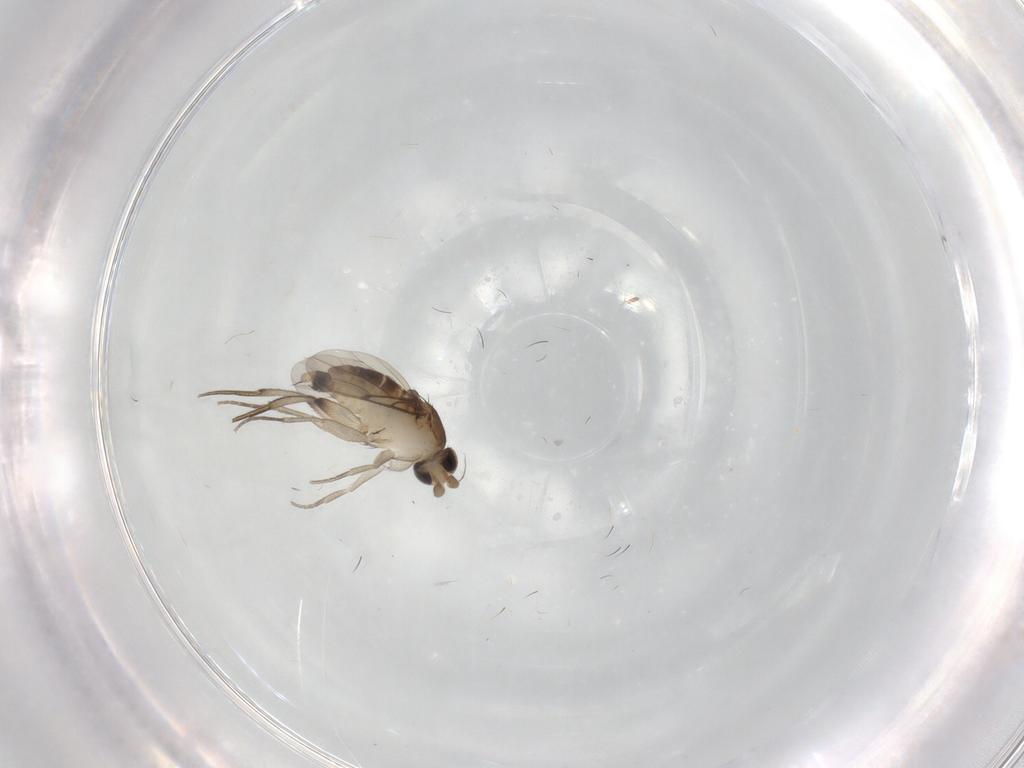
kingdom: Animalia
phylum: Arthropoda
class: Insecta
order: Diptera
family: Phoridae
